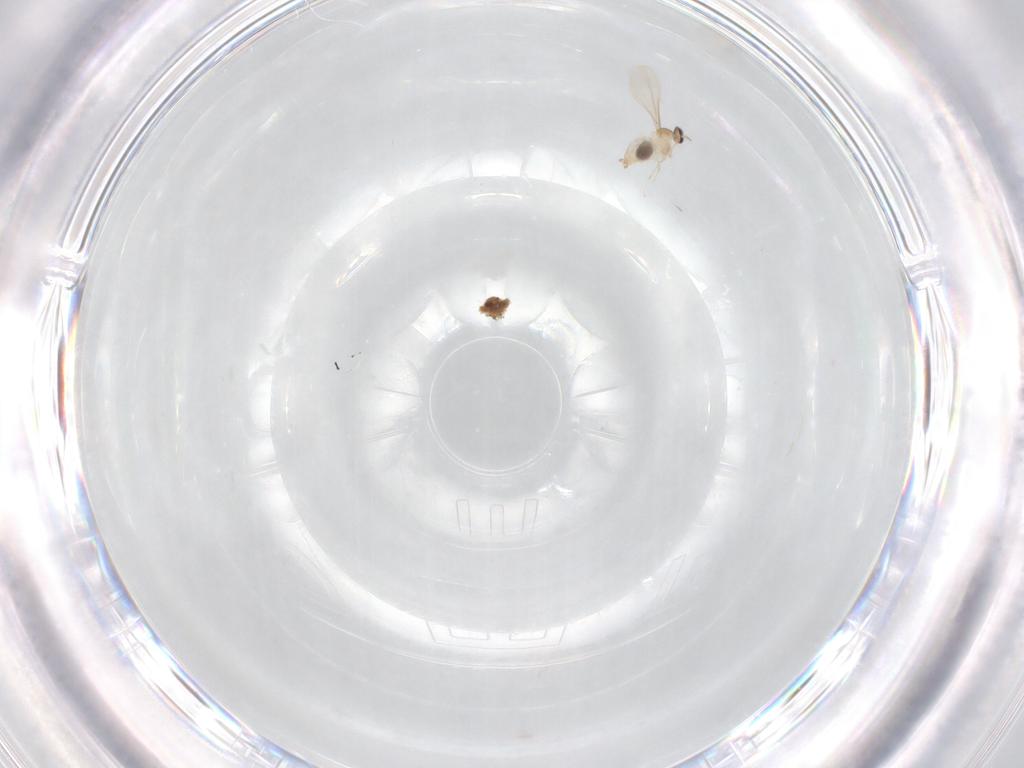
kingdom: Animalia
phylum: Arthropoda
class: Insecta
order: Diptera
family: Cecidomyiidae
